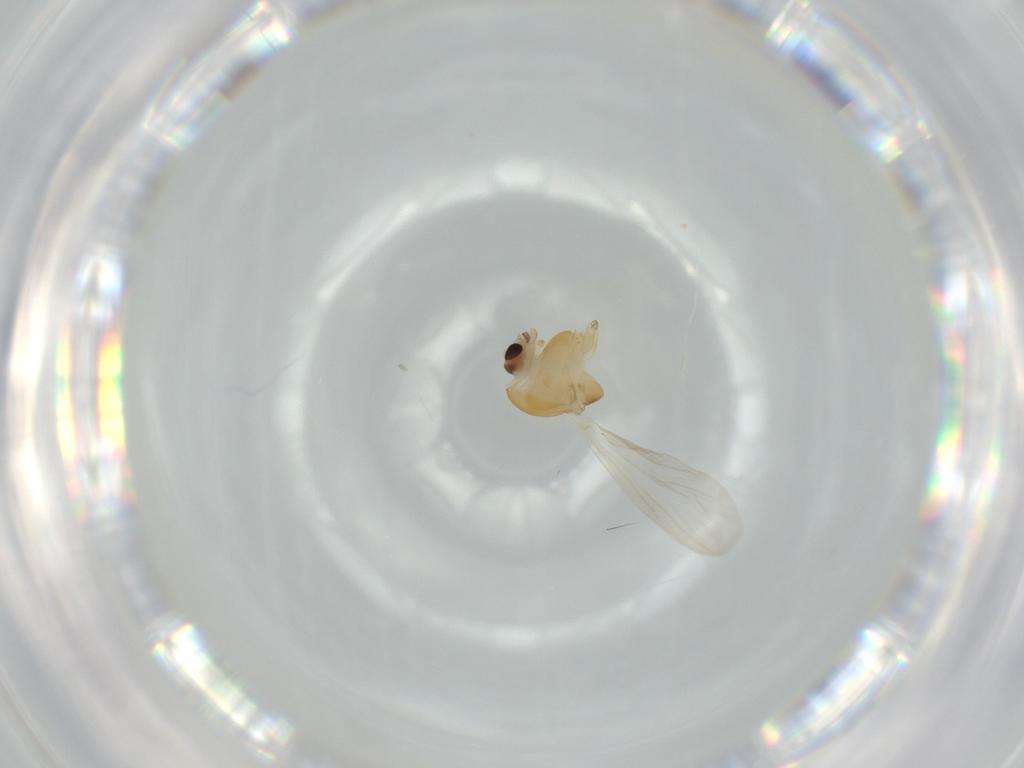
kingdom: Animalia
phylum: Arthropoda
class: Insecta
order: Diptera
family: Chironomidae
